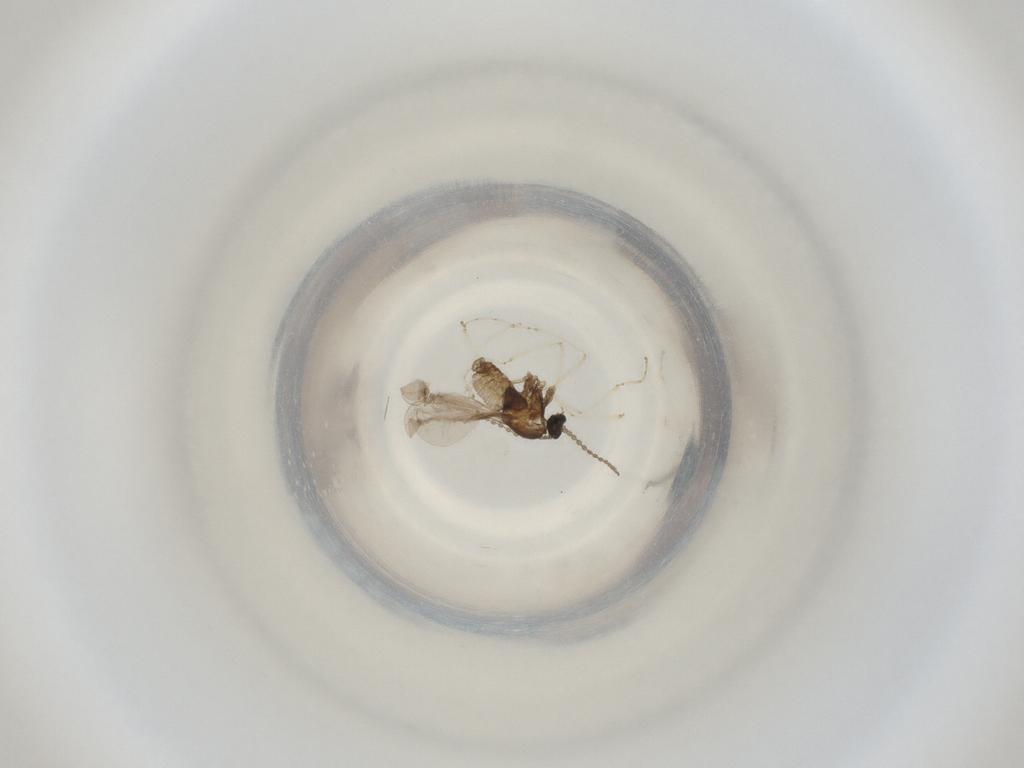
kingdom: Animalia
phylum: Arthropoda
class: Insecta
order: Diptera
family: Cecidomyiidae
